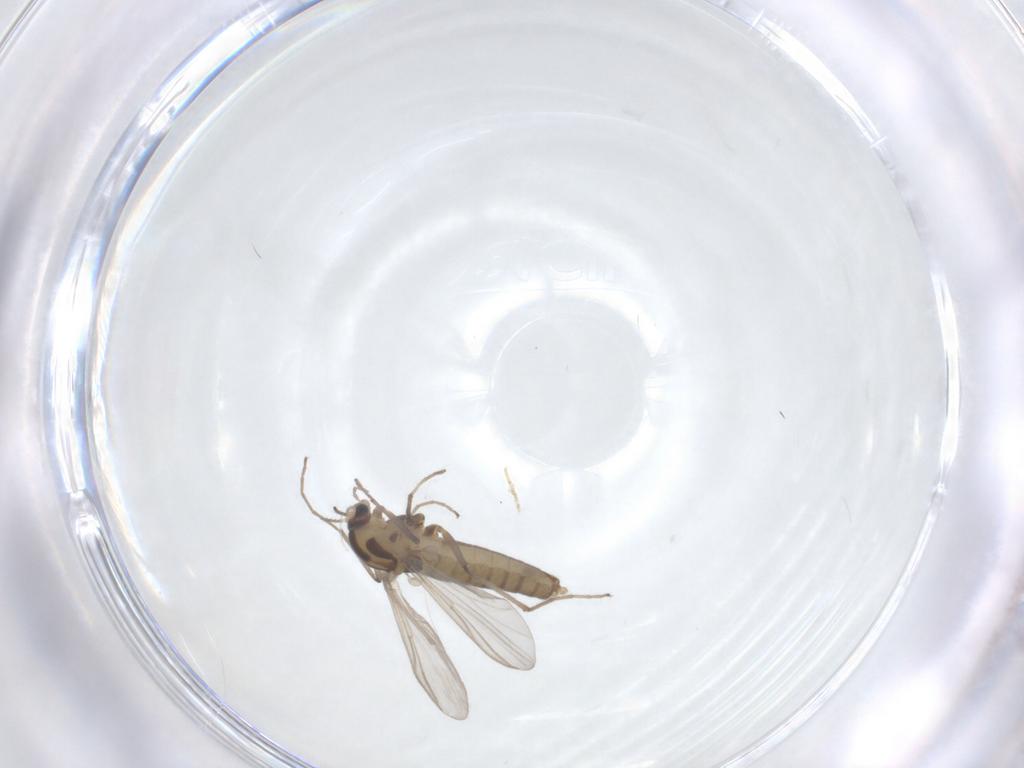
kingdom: Animalia
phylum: Arthropoda
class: Insecta
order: Diptera
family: Chironomidae
